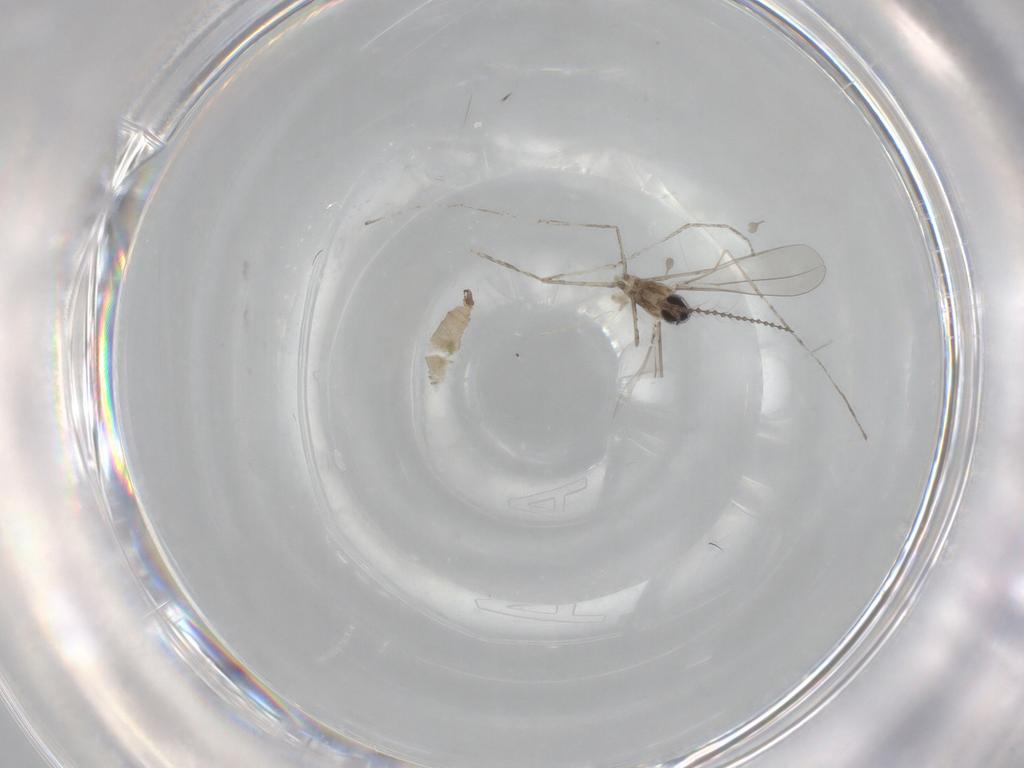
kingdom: Animalia
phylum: Arthropoda
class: Insecta
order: Diptera
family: Cecidomyiidae
